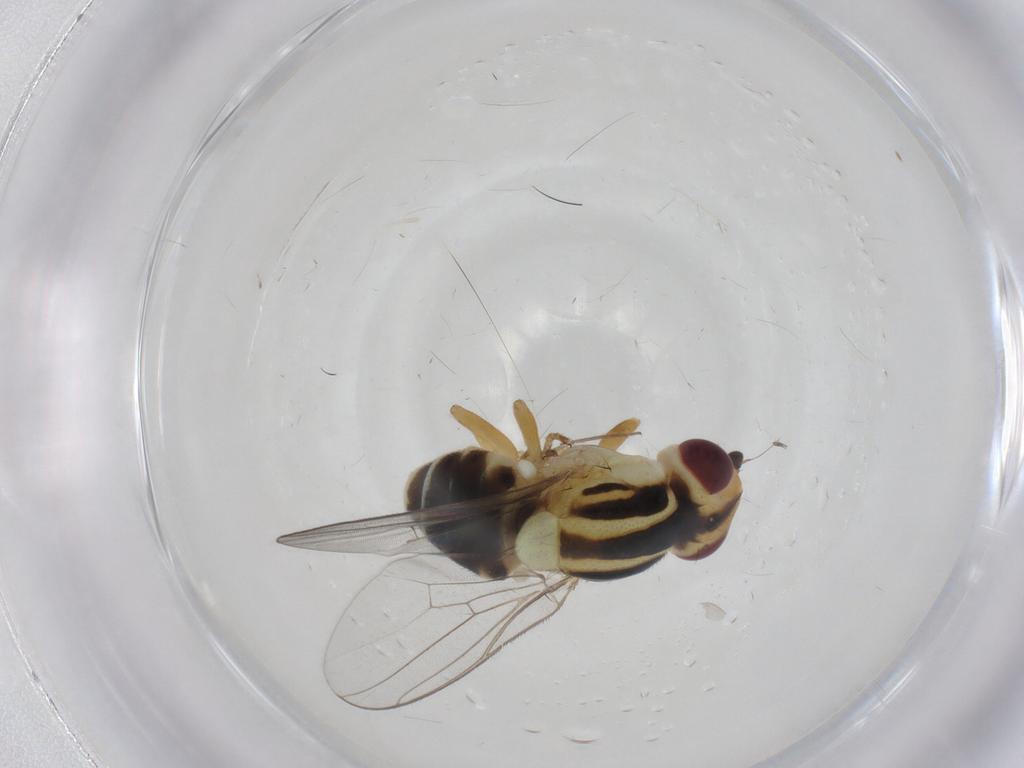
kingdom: Animalia
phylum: Arthropoda
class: Insecta
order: Diptera
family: Chloropidae
